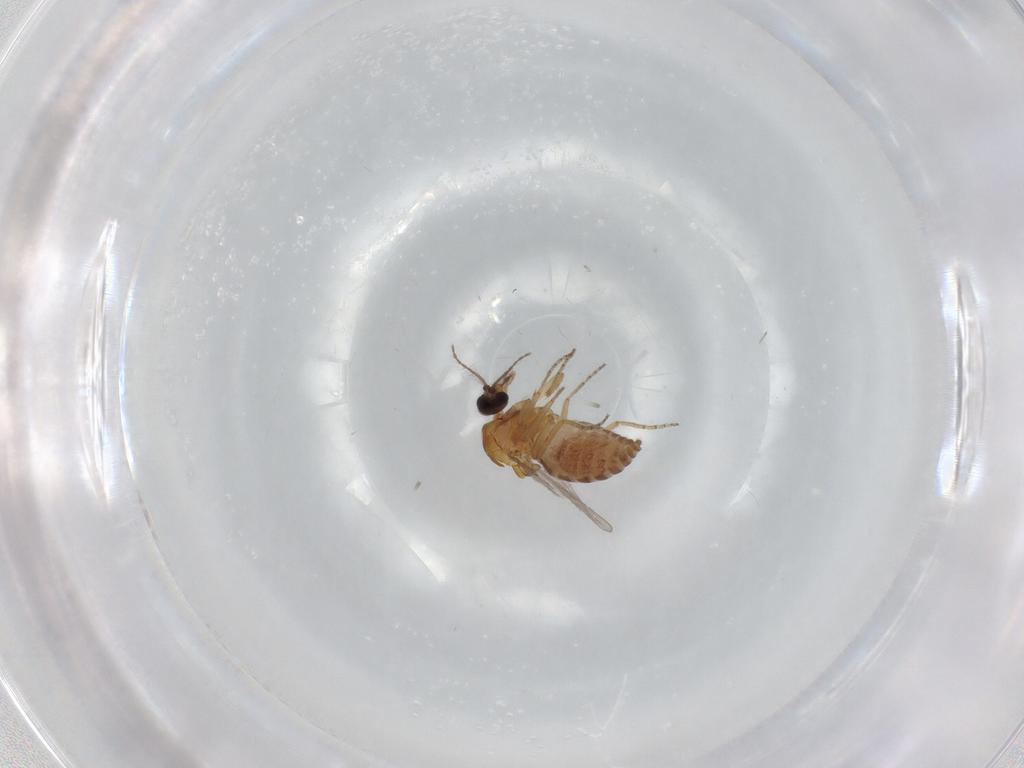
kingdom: Animalia
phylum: Arthropoda
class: Insecta
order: Diptera
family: Ceratopogonidae
